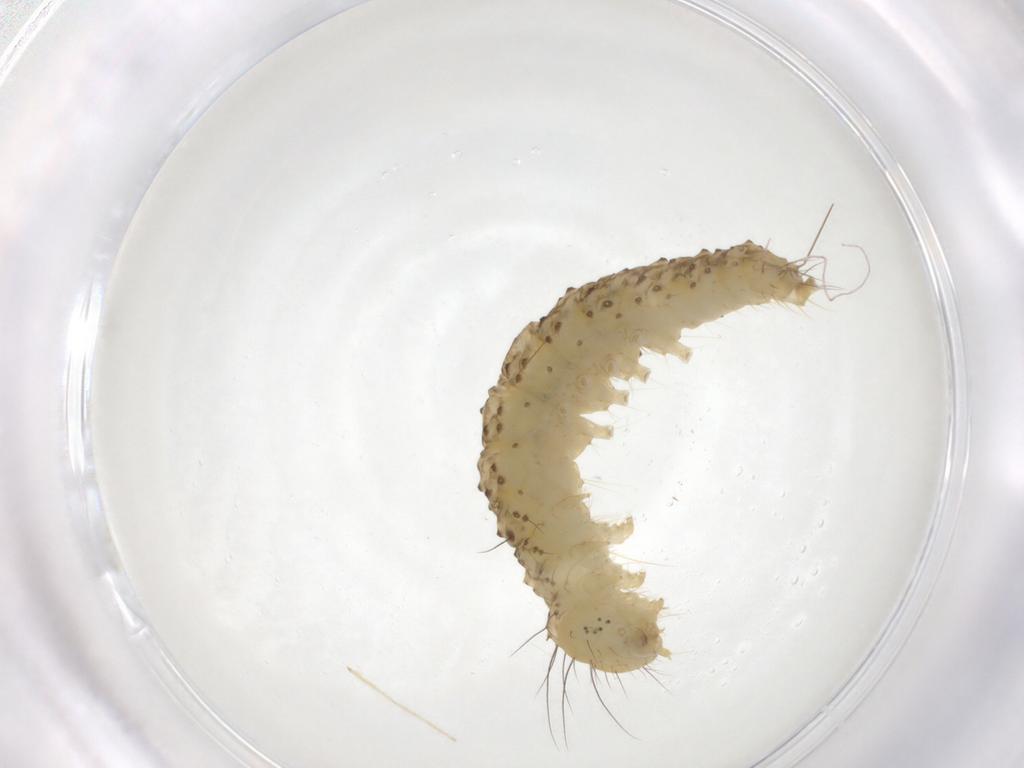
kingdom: Animalia
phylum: Arthropoda
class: Insecta
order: Lepidoptera
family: Immidae
